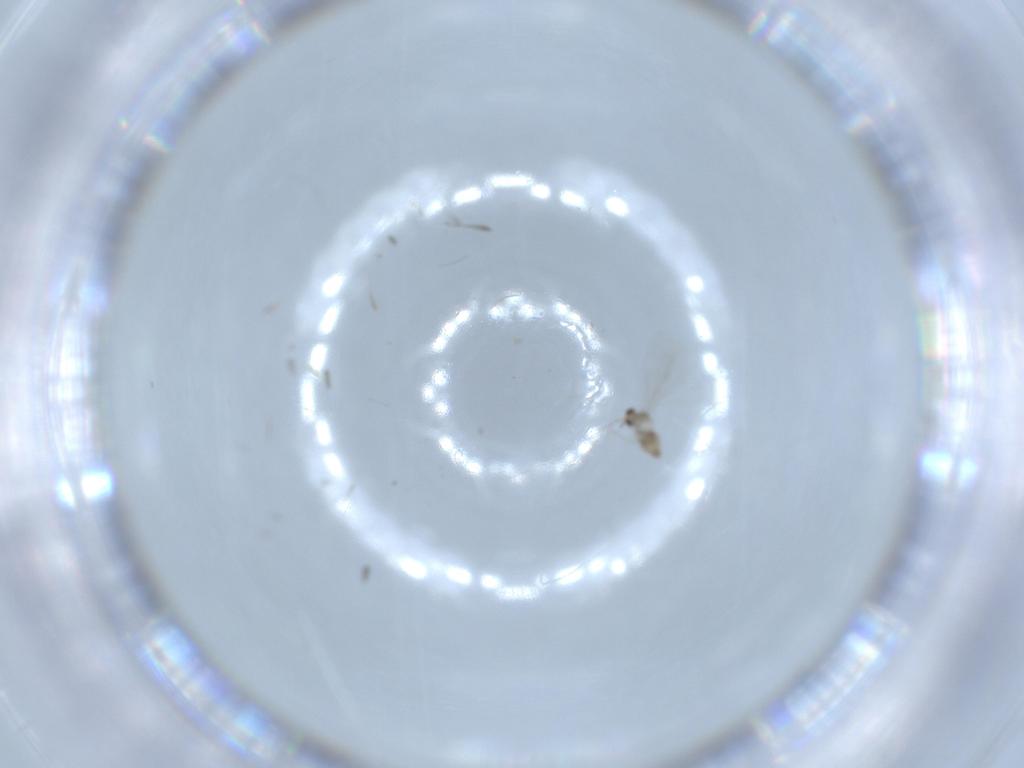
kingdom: Animalia
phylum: Arthropoda
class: Insecta
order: Diptera
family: Cecidomyiidae
